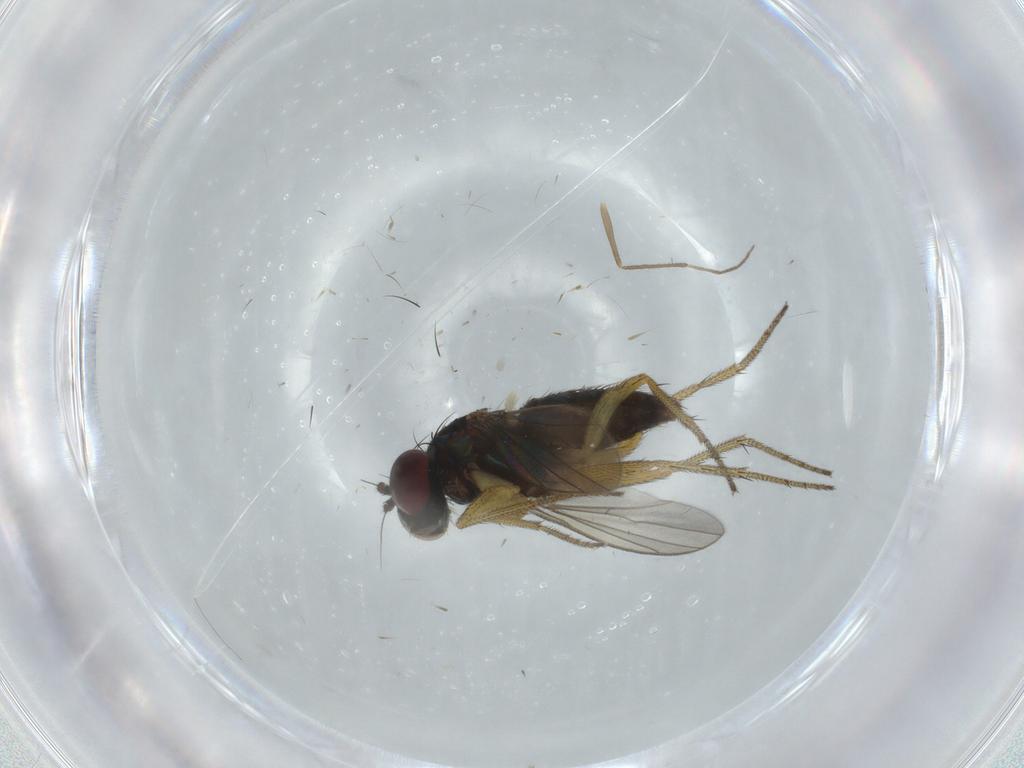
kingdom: Animalia
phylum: Arthropoda
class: Insecta
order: Diptera
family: Dolichopodidae
